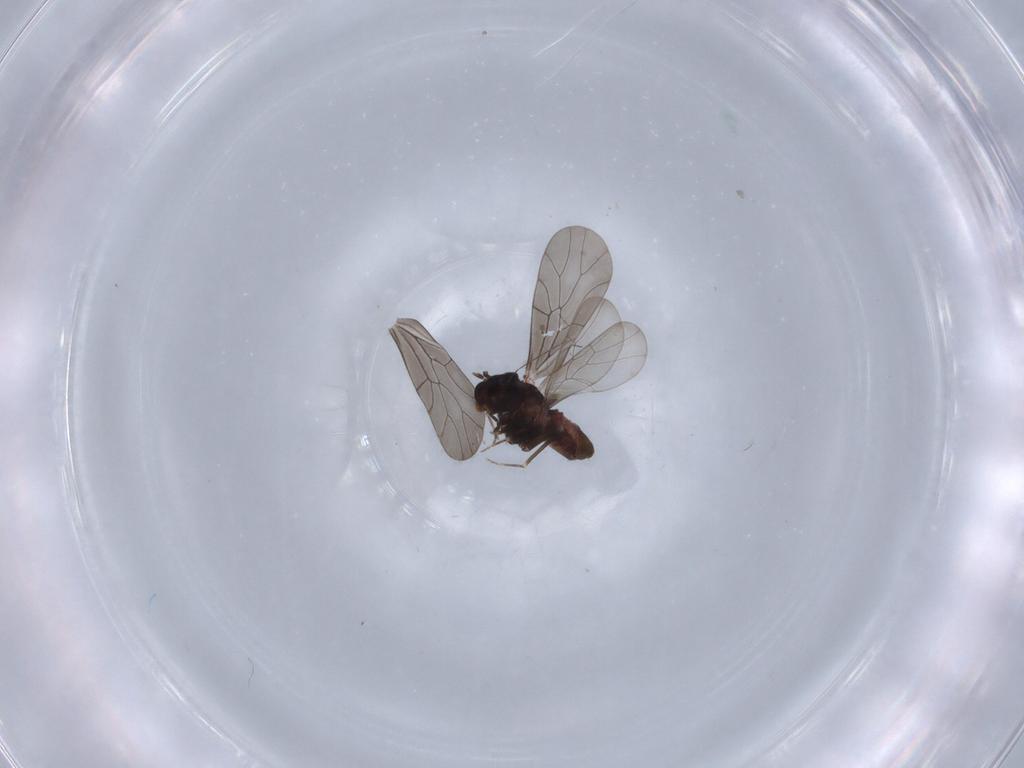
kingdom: Animalia
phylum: Arthropoda
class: Insecta
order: Psocodea
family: Lepidopsocidae
